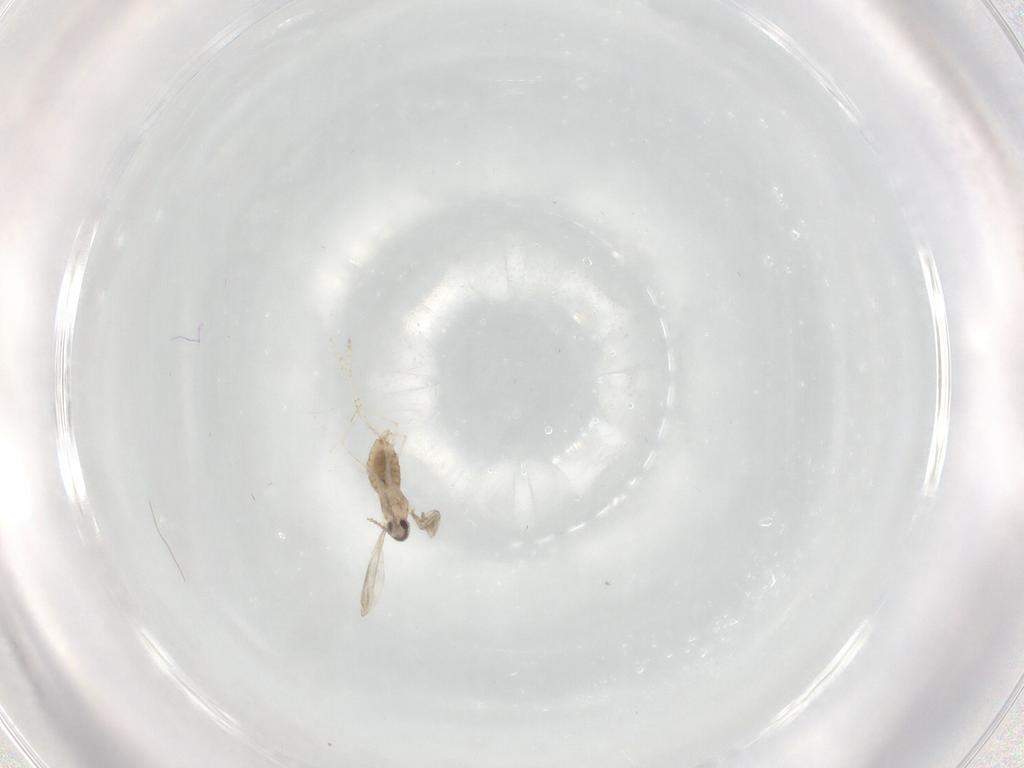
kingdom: Animalia
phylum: Arthropoda
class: Insecta
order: Diptera
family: Cecidomyiidae
